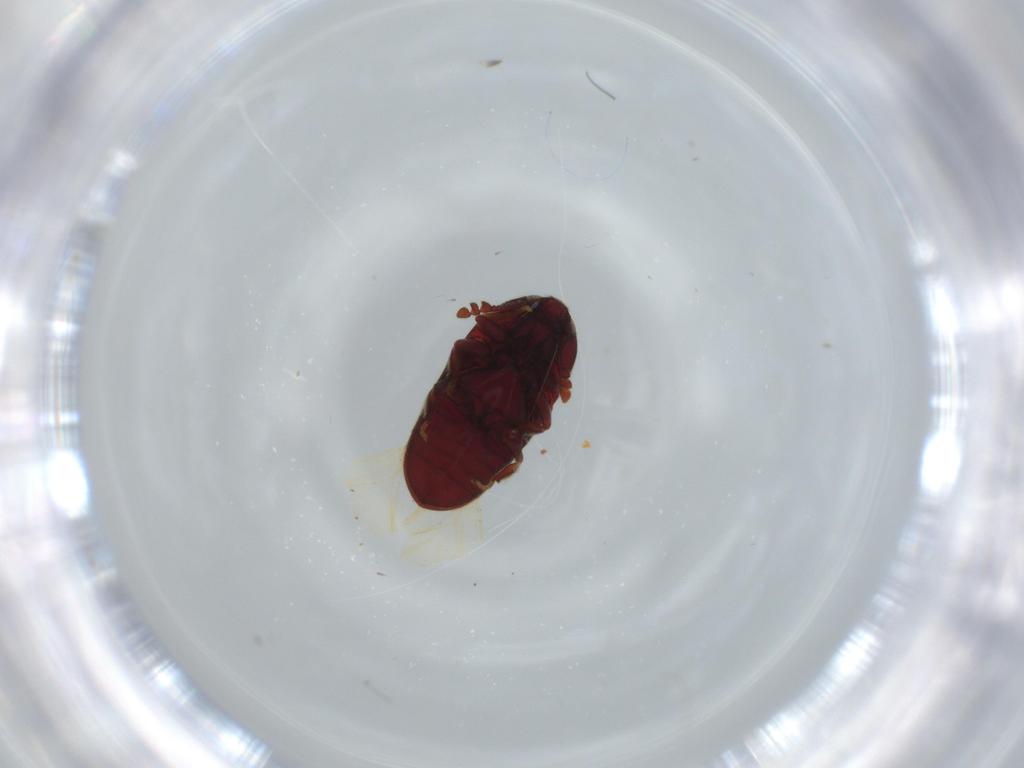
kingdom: Animalia
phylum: Arthropoda
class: Insecta
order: Coleoptera
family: Throscidae
